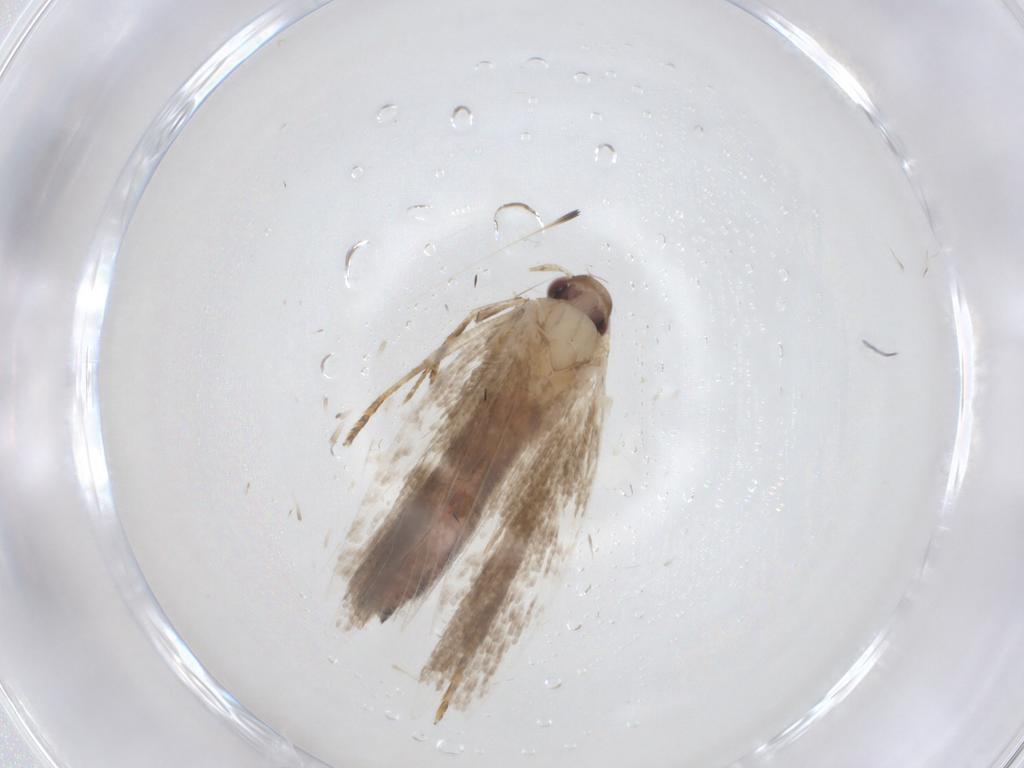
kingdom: Animalia
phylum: Arthropoda
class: Insecta
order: Lepidoptera
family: Gelechiidae
